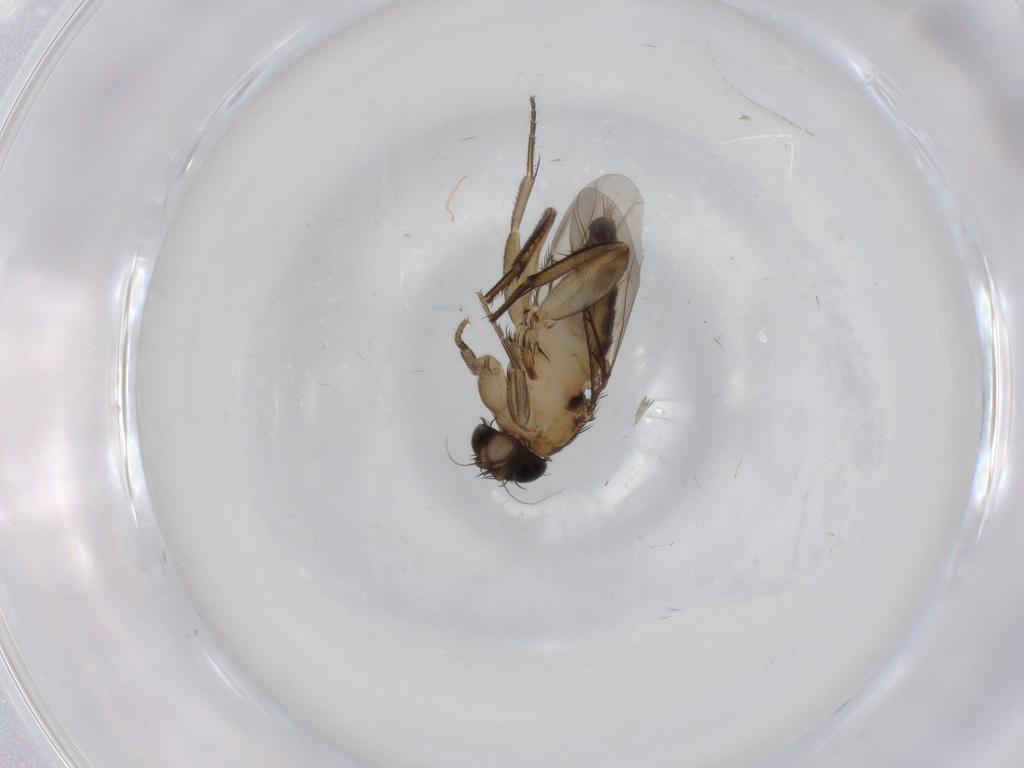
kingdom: Animalia
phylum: Arthropoda
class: Insecta
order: Diptera
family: Phoridae
